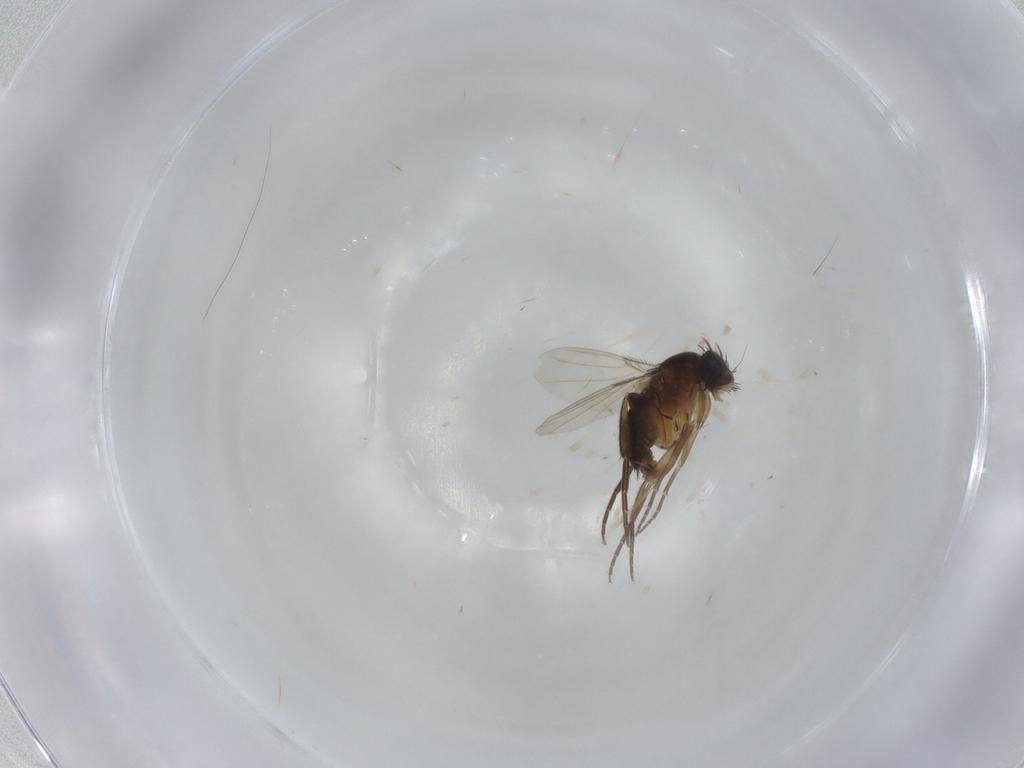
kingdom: Animalia
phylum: Arthropoda
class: Insecta
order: Diptera
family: Phoridae
